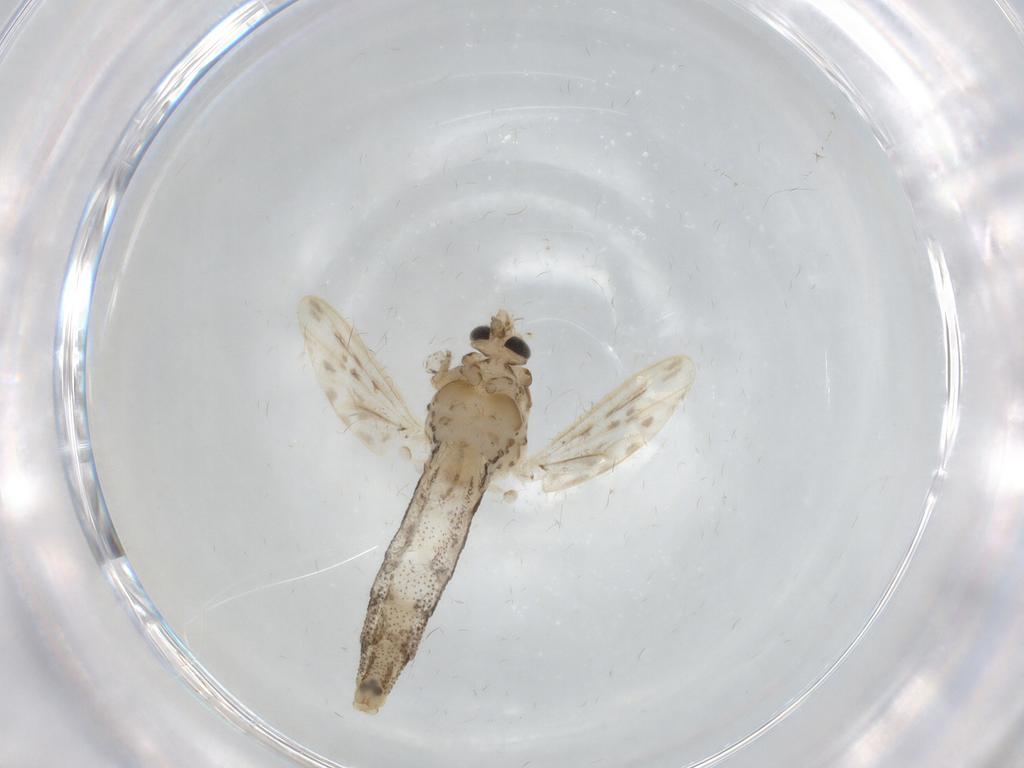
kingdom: Animalia
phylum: Arthropoda
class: Insecta
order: Diptera
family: Chaoboridae
